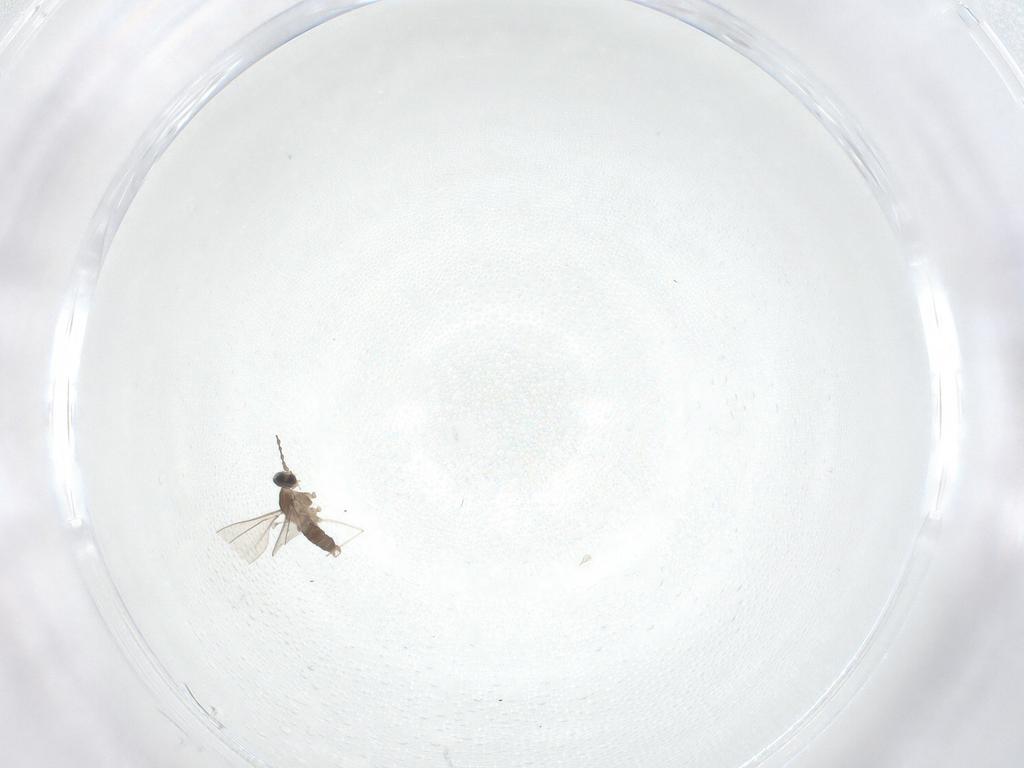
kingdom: Animalia
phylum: Arthropoda
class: Insecta
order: Diptera
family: Cecidomyiidae
